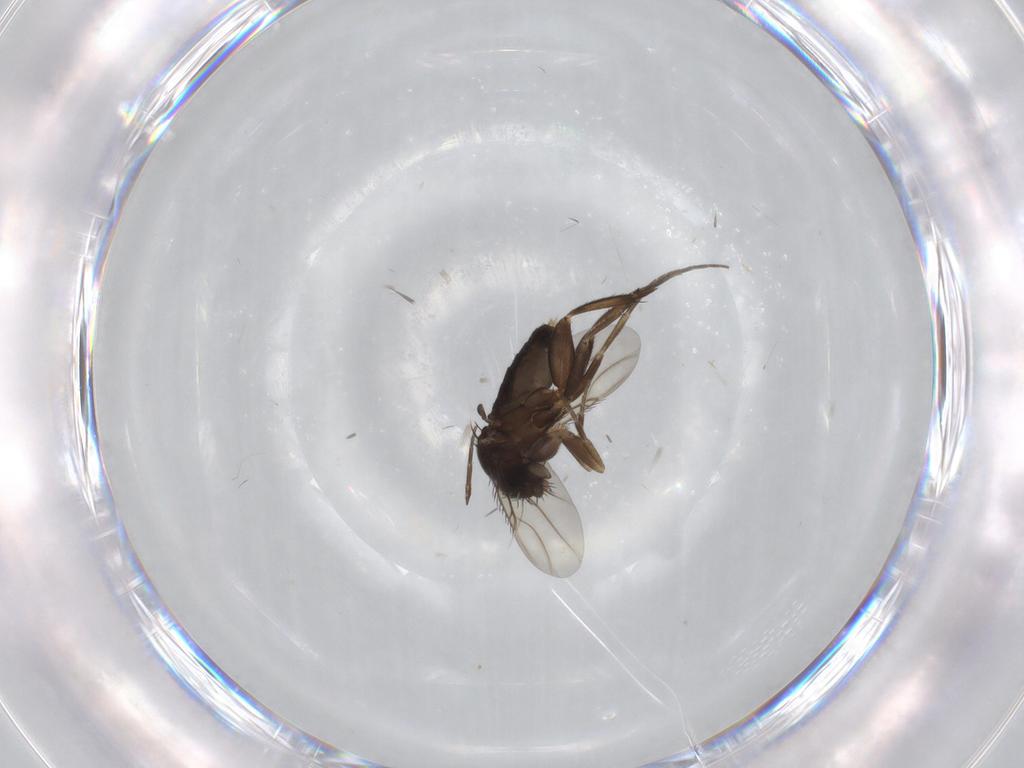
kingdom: Animalia
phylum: Arthropoda
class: Insecta
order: Diptera
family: Phoridae
